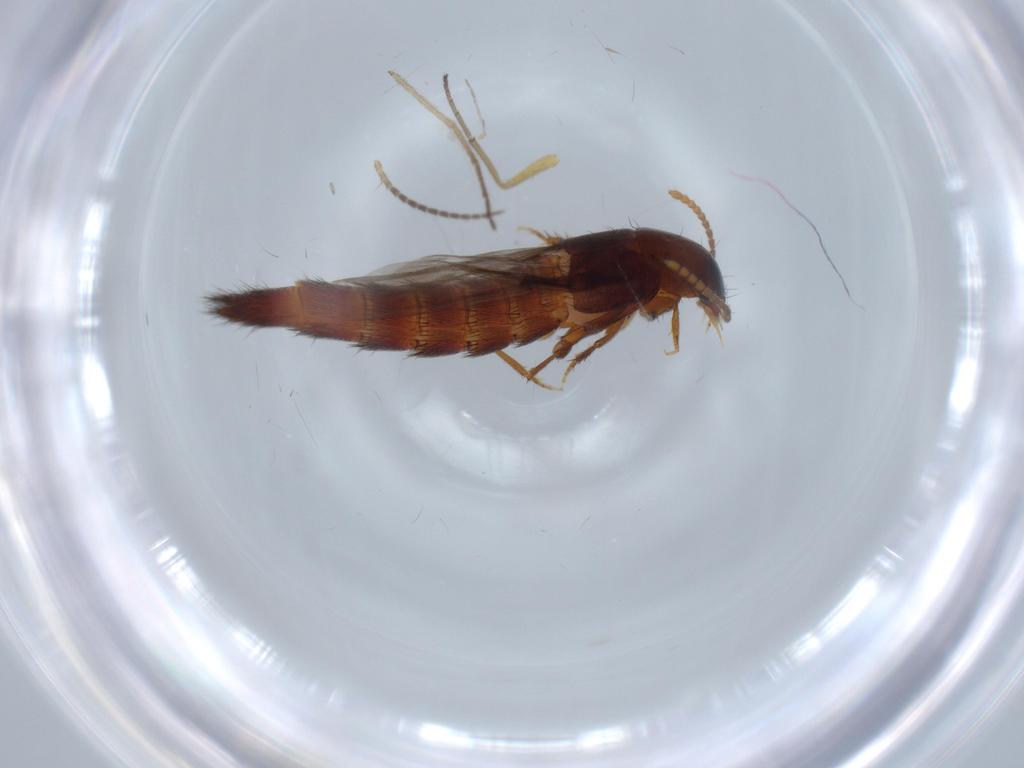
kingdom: Animalia
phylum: Arthropoda
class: Insecta
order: Coleoptera
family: Staphylinidae
